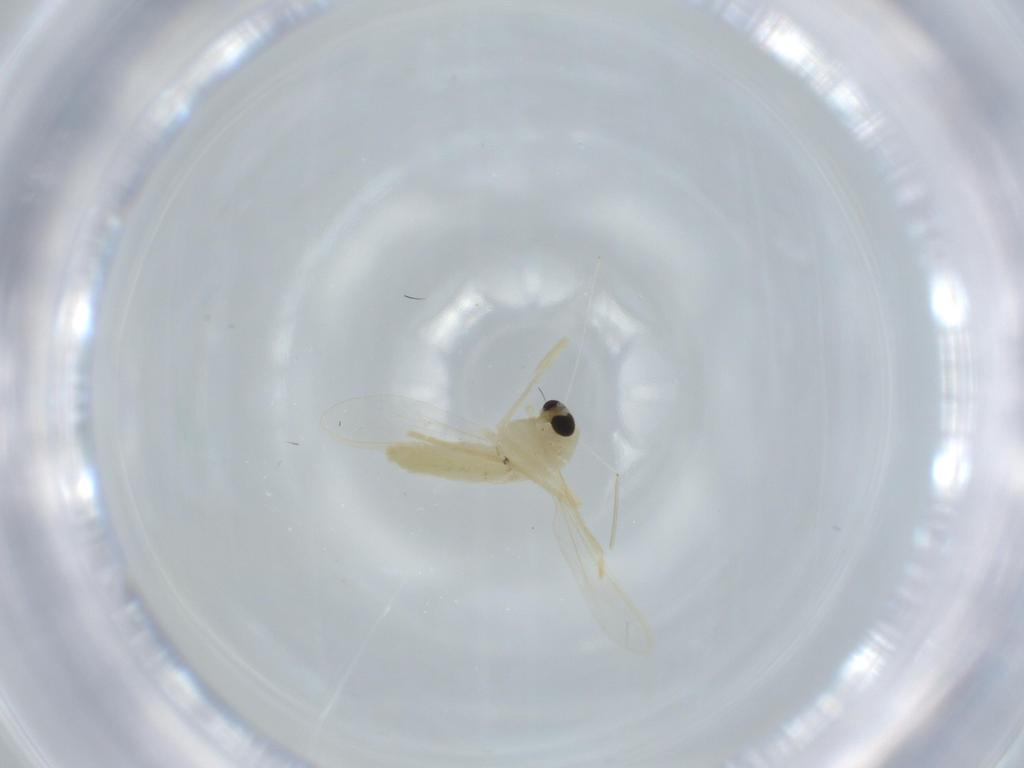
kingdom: Animalia
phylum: Arthropoda
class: Insecta
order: Diptera
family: Chironomidae
